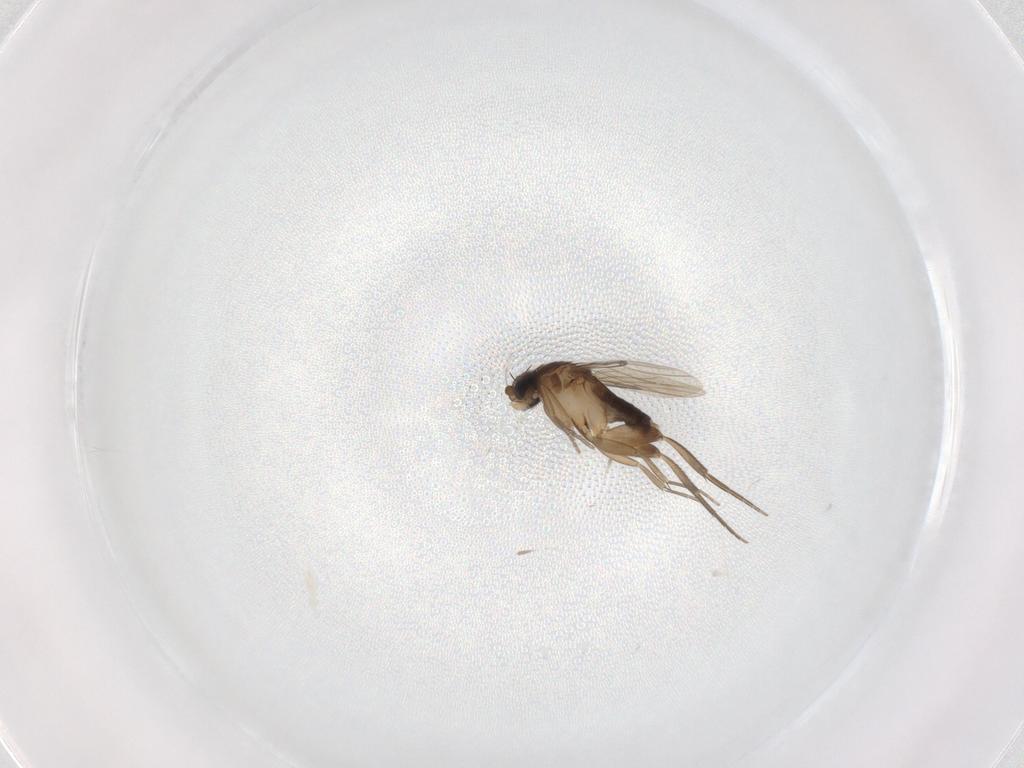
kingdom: Animalia
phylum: Arthropoda
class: Insecta
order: Diptera
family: Phoridae
